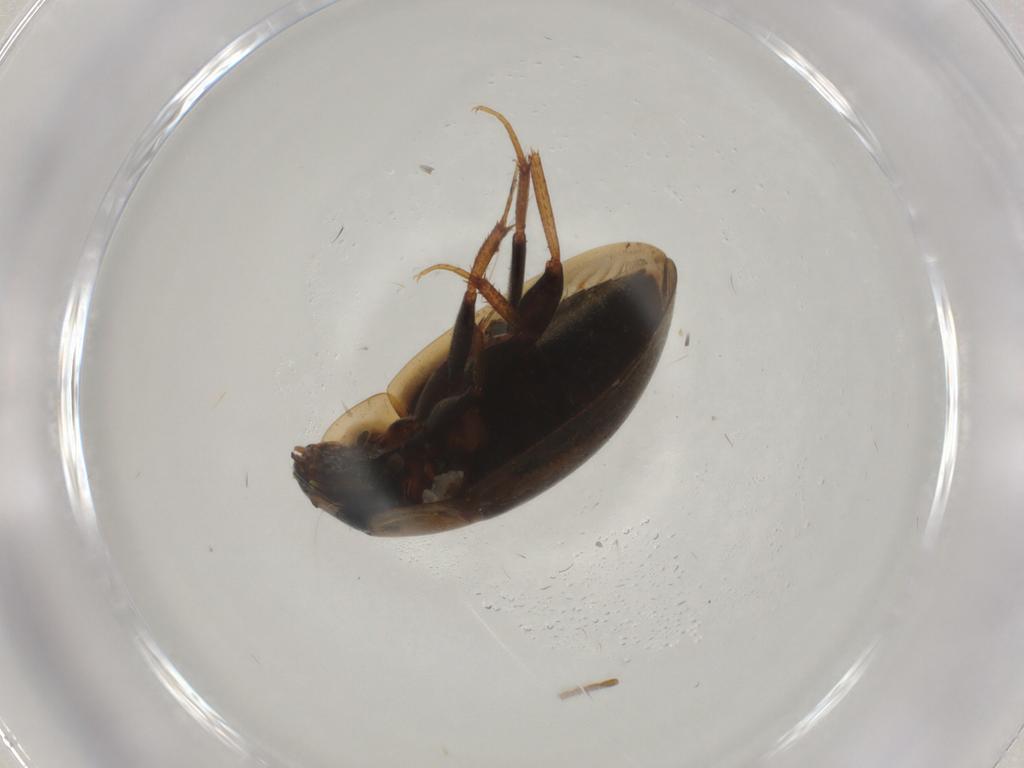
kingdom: Animalia
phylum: Arthropoda
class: Insecta
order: Coleoptera
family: Hydrophilidae
